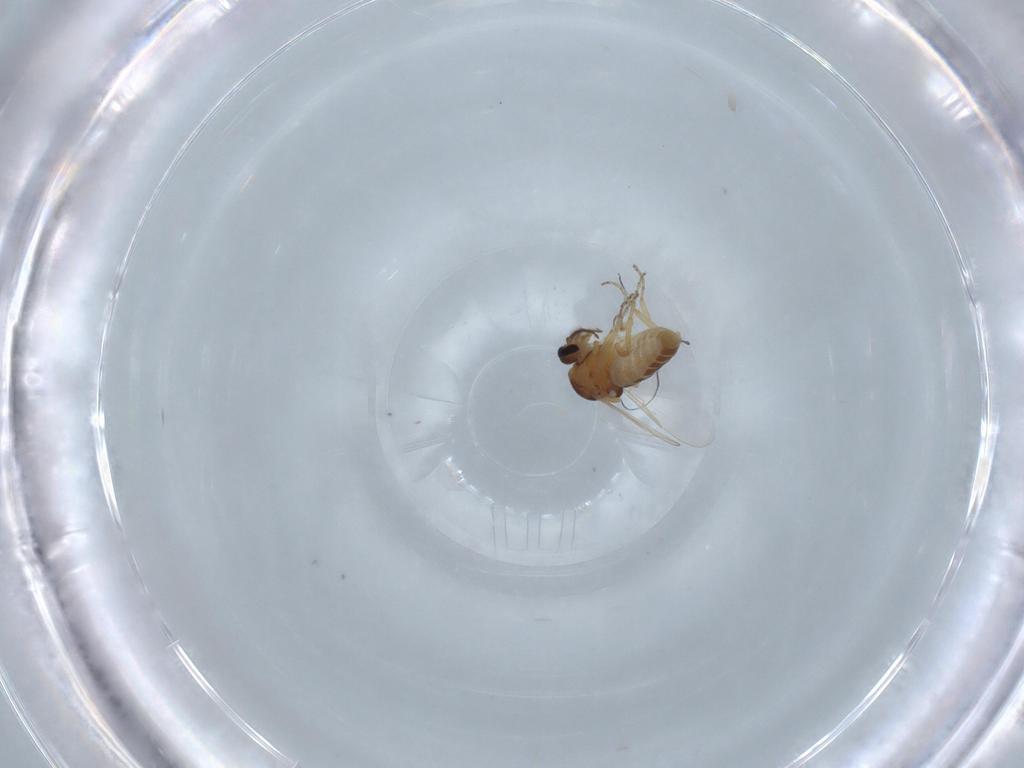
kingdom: Animalia
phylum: Arthropoda
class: Insecta
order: Diptera
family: Ceratopogonidae
